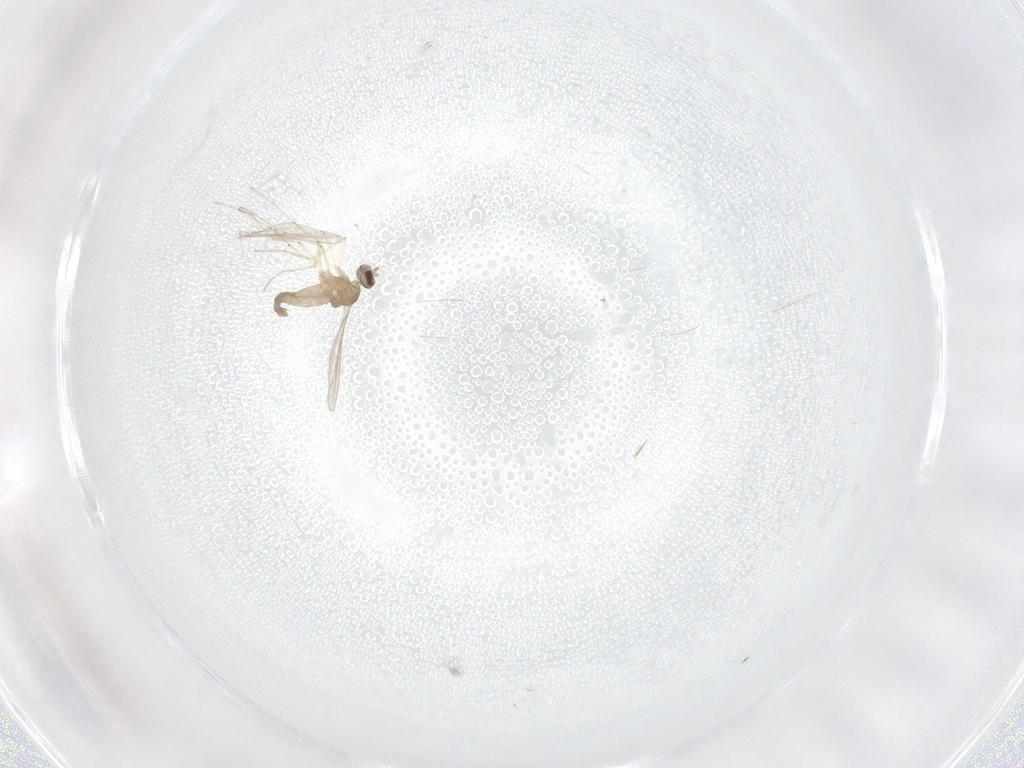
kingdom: Animalia
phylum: Arthropoda
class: Insecta
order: Diptera
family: Cecidomyiidae
